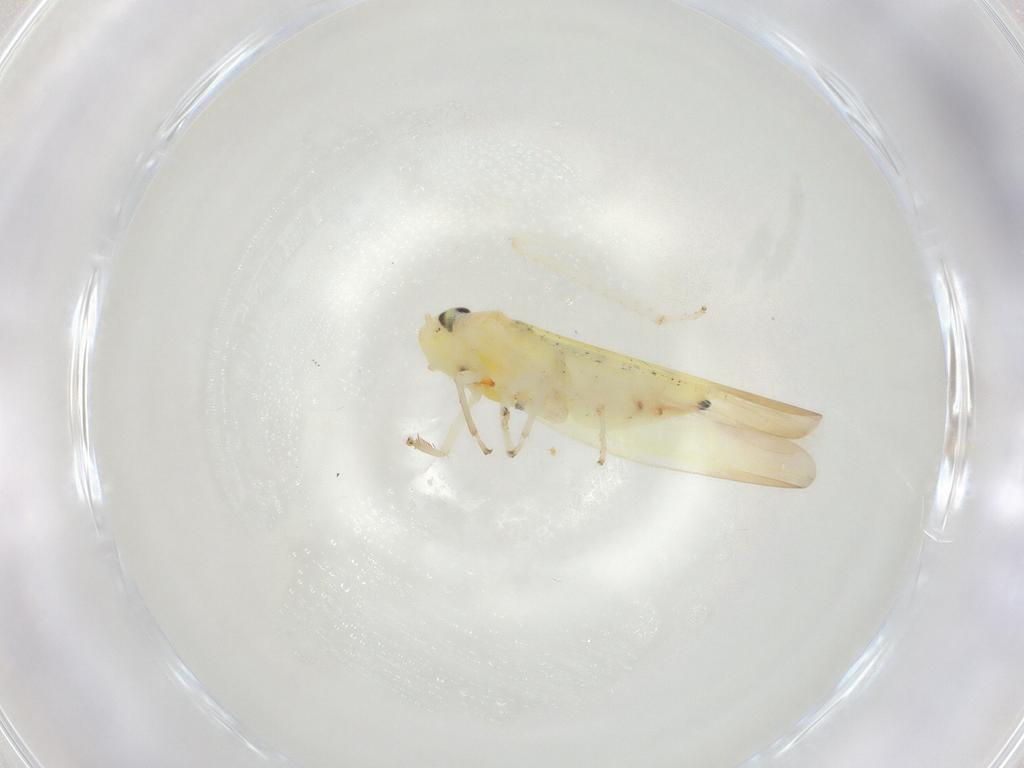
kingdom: Animalia
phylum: Arthropoda
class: Insecta
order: Hemiptera
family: Cicadellidae
